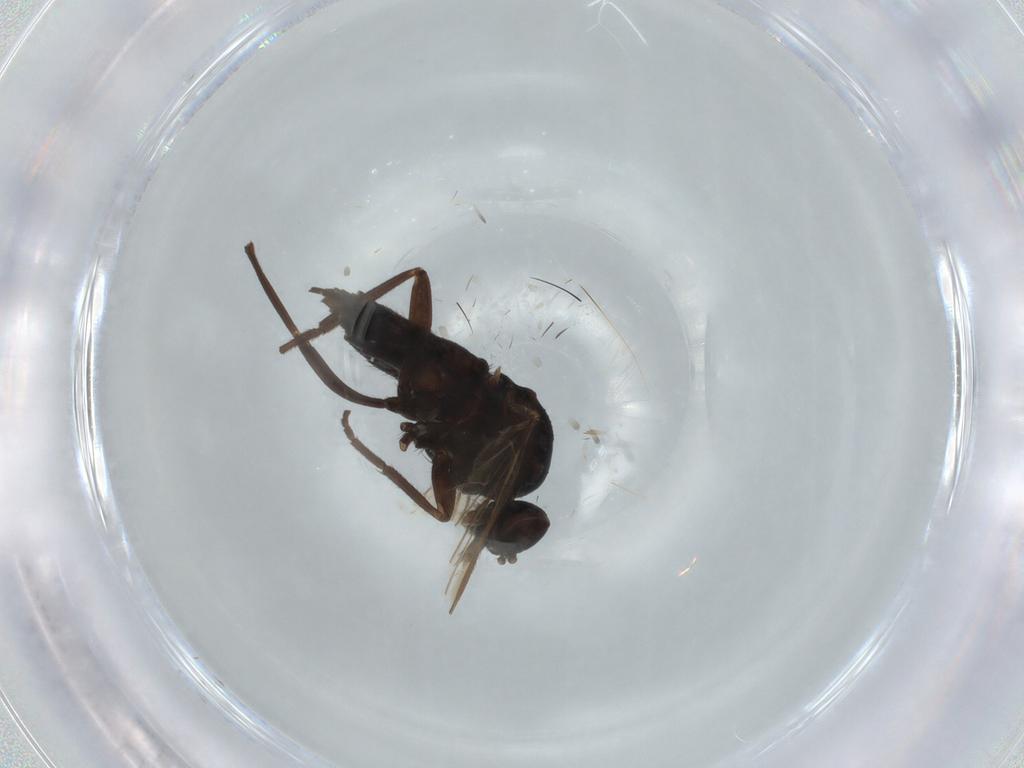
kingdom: Animalia
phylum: Arthropoda
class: Insecta
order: Diptera
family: Empididae
